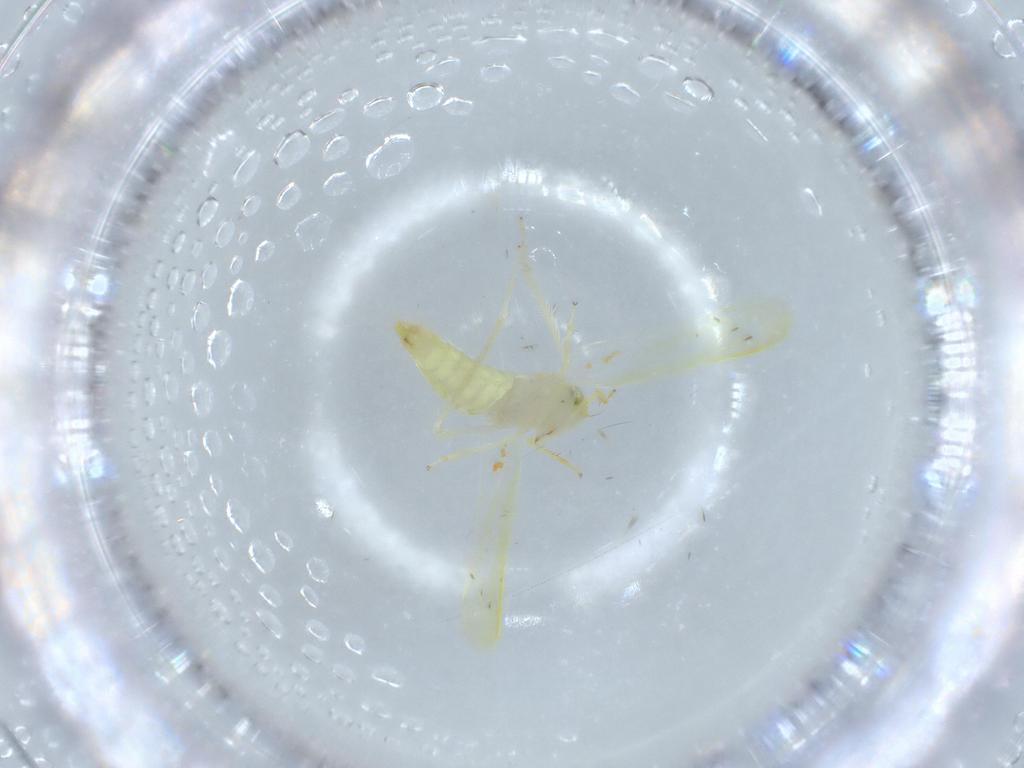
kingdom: Animalia
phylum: Arthropoda
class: Insecta
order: Hemiptera
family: Cicadellidae
